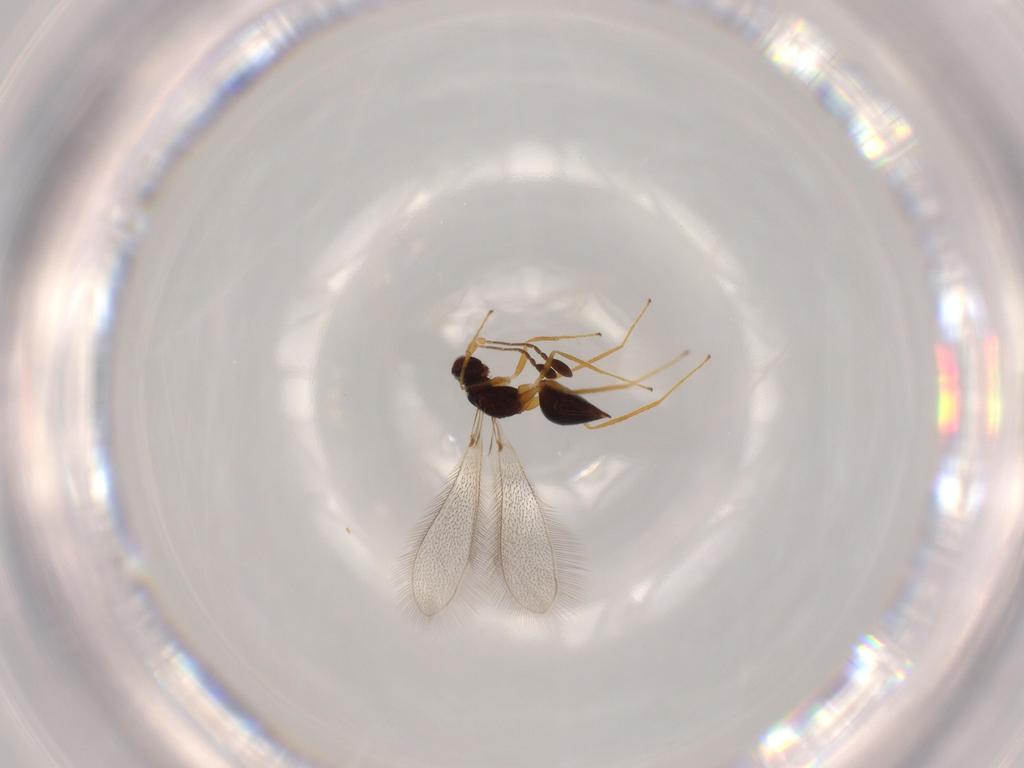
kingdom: Animalia
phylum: Arthropoda
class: Insecta
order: Hymenoptera
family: Mymaridae
